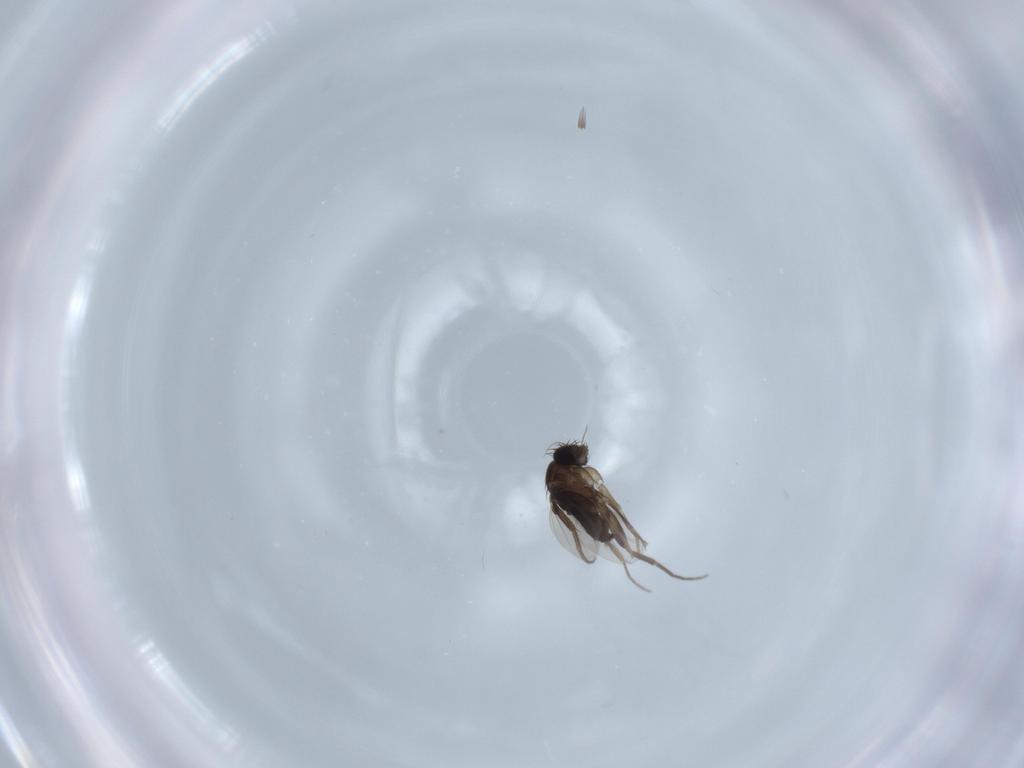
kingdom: Animalia
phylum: Arthropoda
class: Insecta
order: Diptera
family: Phoridae
